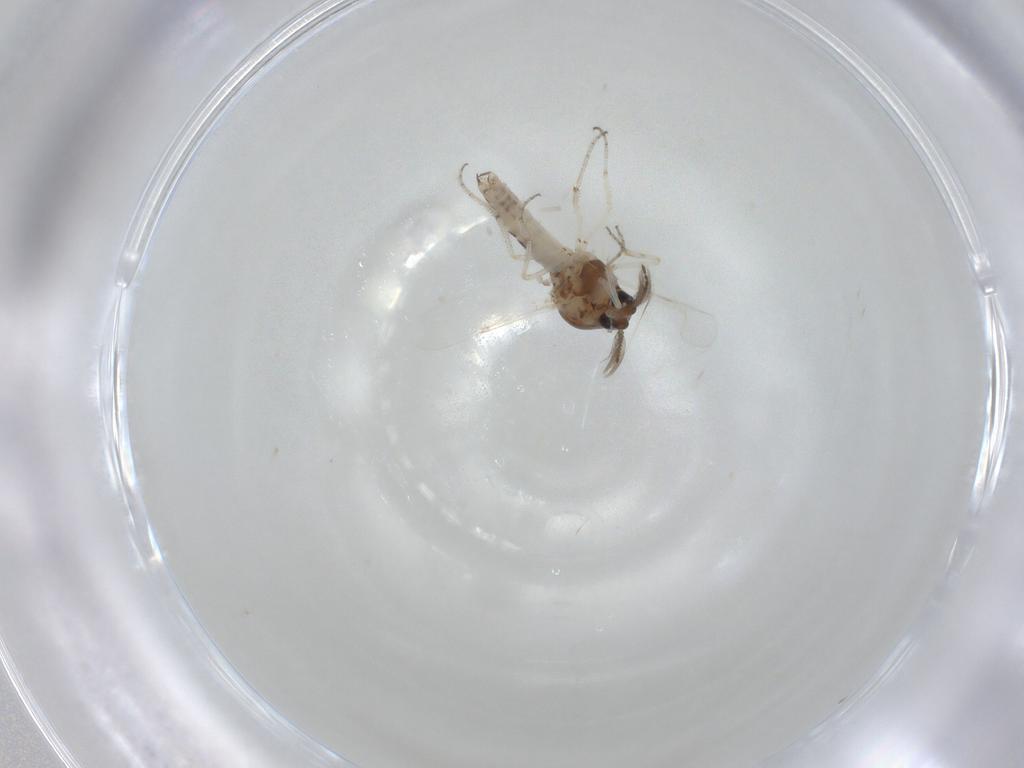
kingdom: Animalia
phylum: Arthropoda
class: Insecta
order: Diptera
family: Ceratopogonidae
